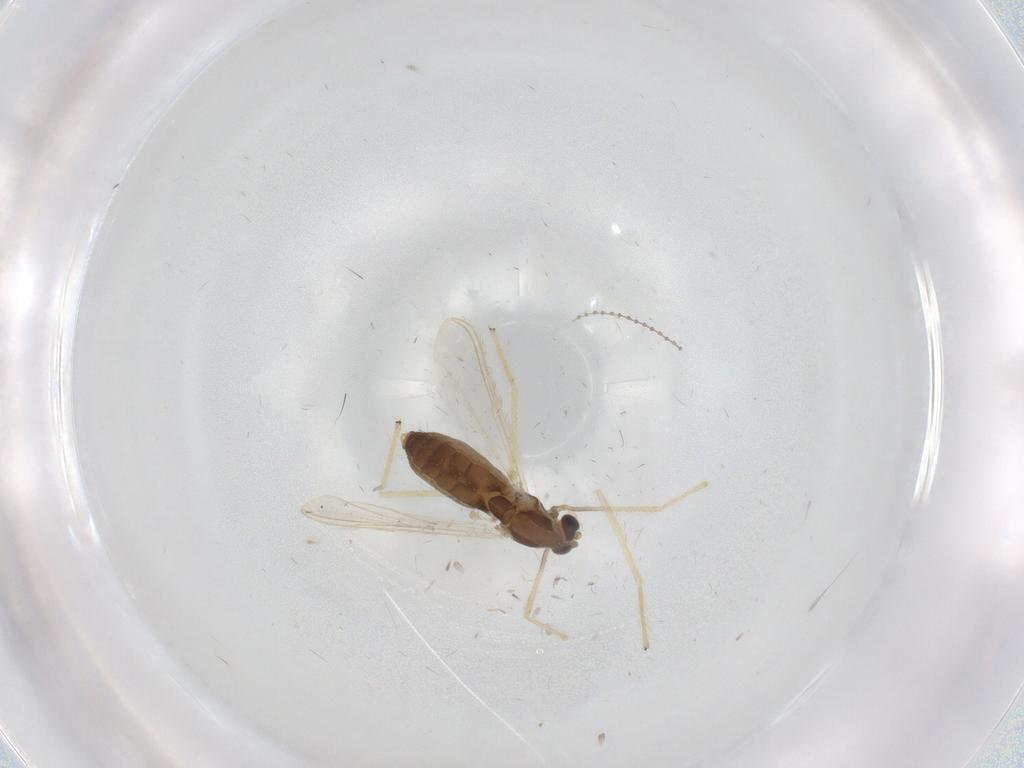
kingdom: Animalia
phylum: Arthropoda
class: Insecta
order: Diptera
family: Chironomidae
